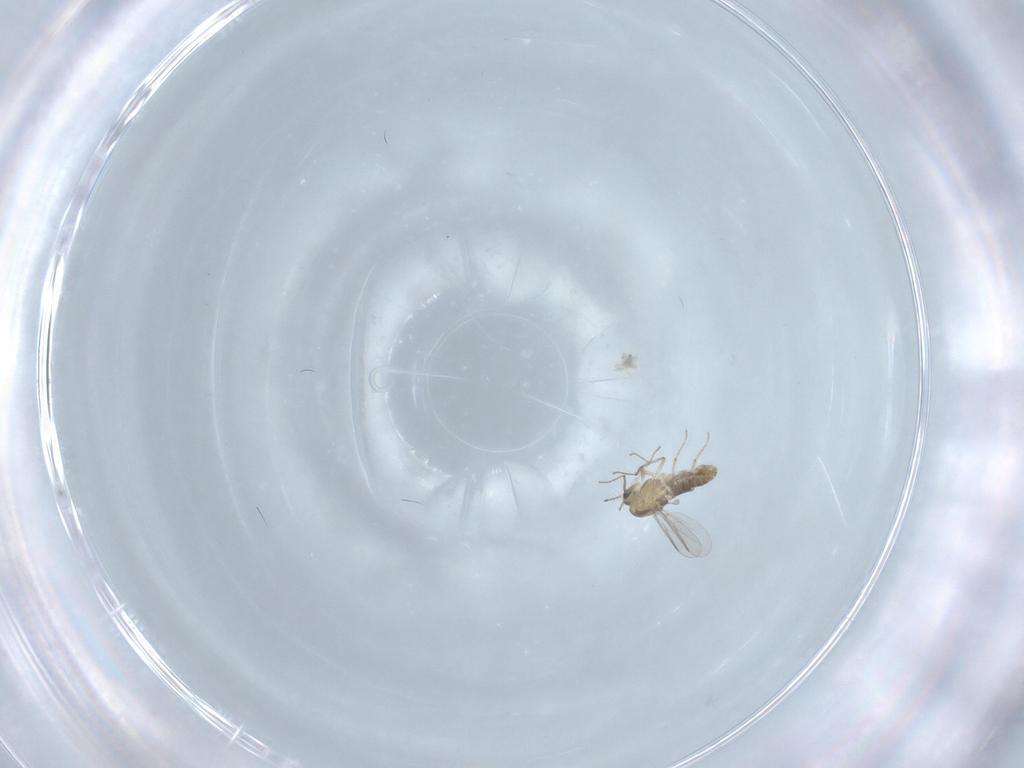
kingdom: Animalia
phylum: Arthropoda
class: Insecta
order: Diptera
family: Chironomidae
